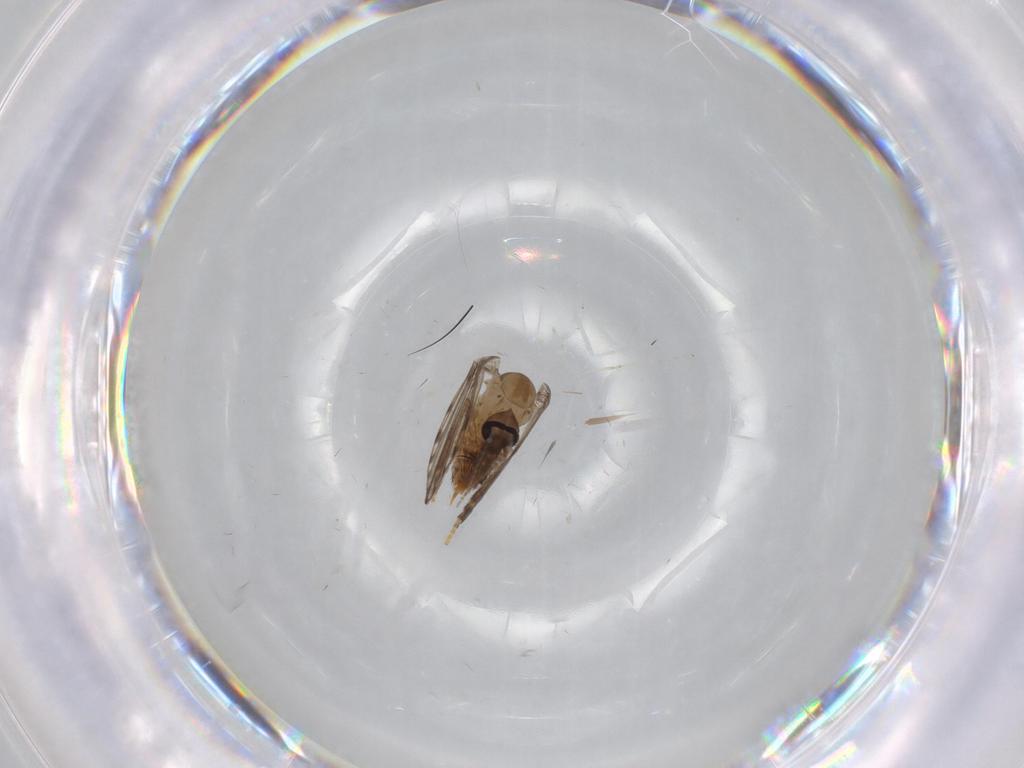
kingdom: Animalia
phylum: Arthropoda
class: Insecta
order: Diptera
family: Psychodidae
